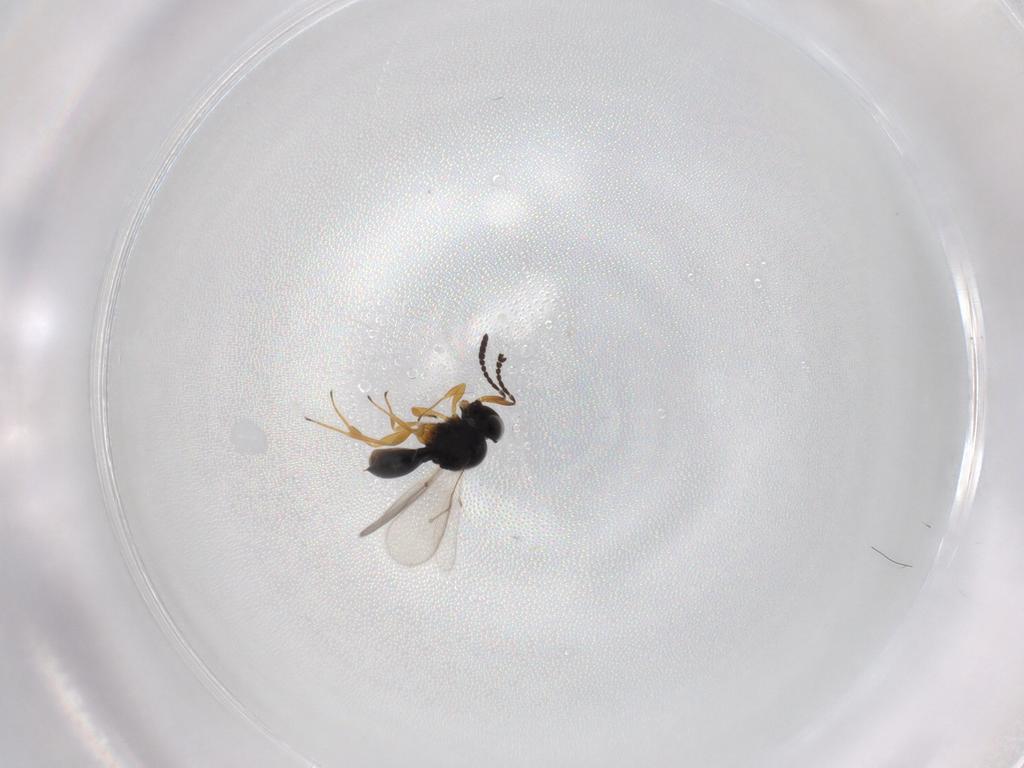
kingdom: Animalia
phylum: Arthropoda
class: Insecta
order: Hymenoptera
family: Scelionidae
